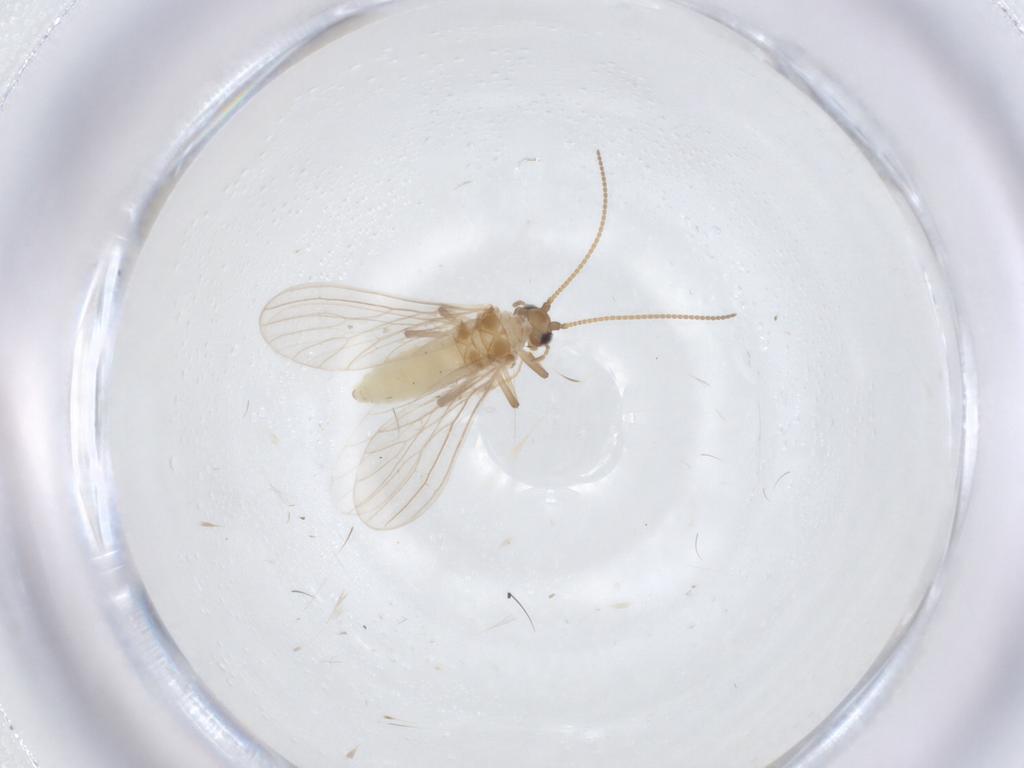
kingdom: Animalia
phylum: Arthropoda
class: Insecta
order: Neuroptera
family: Coniopterygidae
